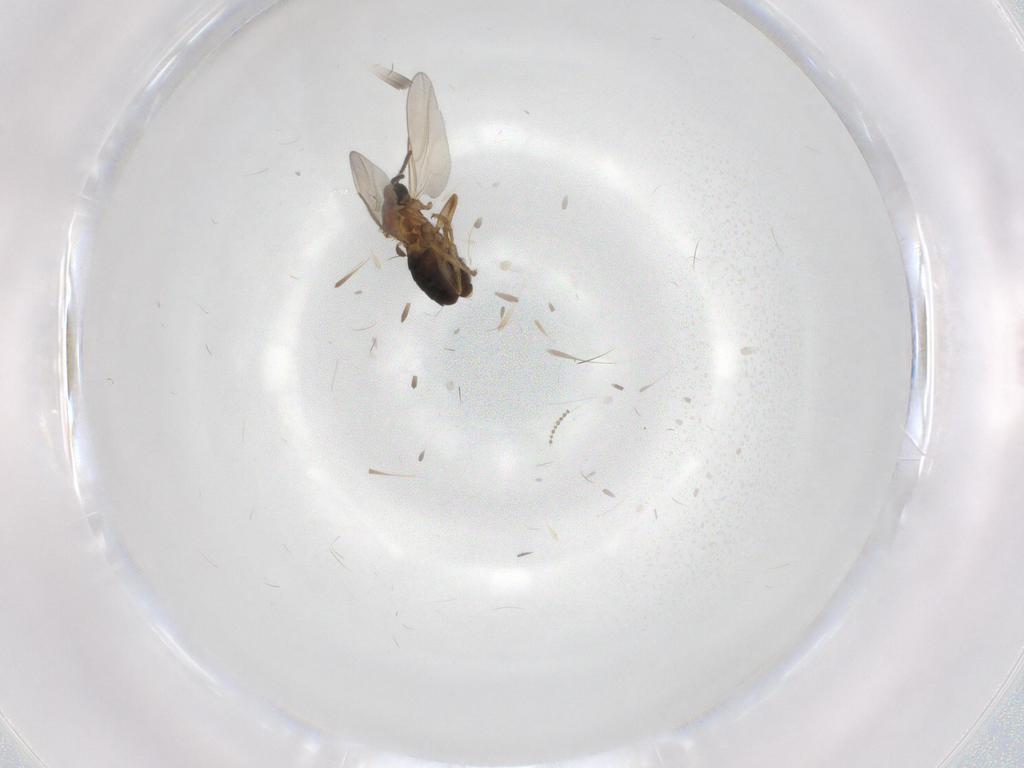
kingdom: Animalia
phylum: Arthropoda
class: Insecta
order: Diptera
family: Scatopsidae
